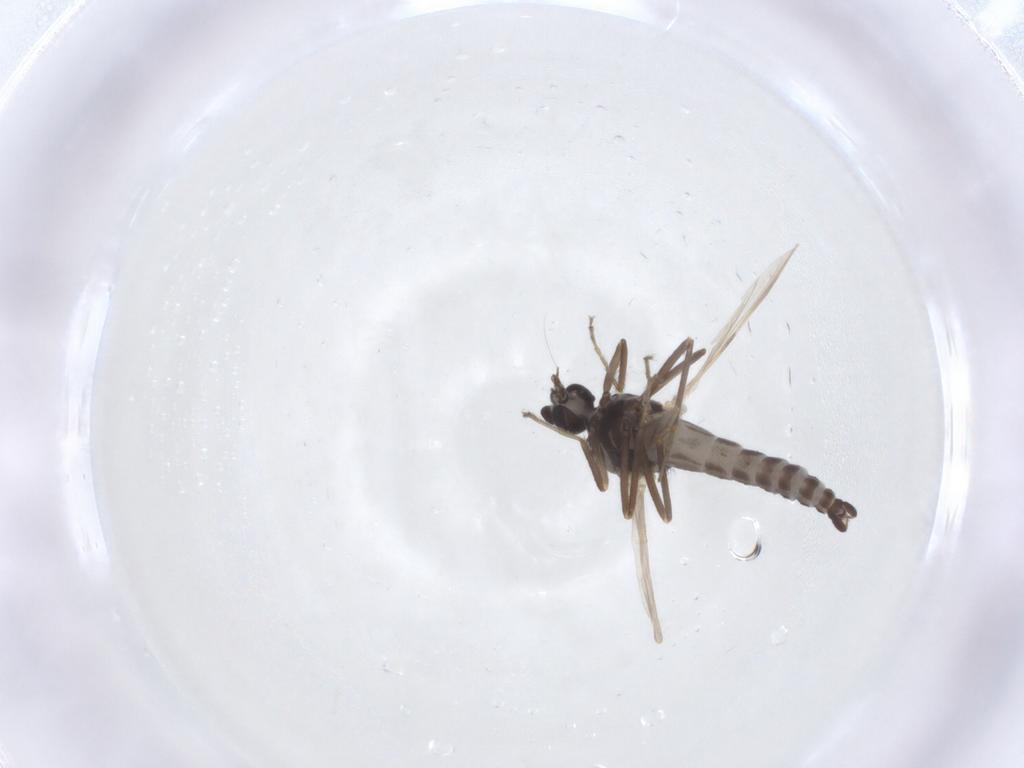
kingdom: Animalia
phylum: Arthropoda
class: Insecta
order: Diptera
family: Ceratopogonidae
